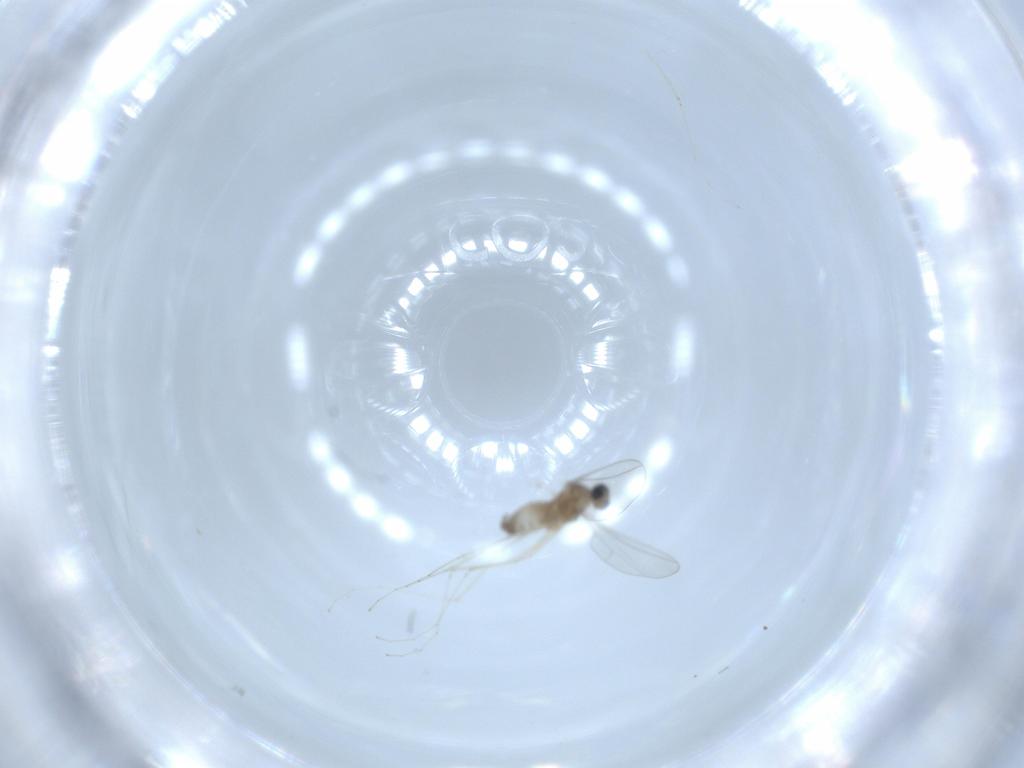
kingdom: Animalia
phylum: Arthropoda
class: Insecta
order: Diptera
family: Cecidomyiidae
